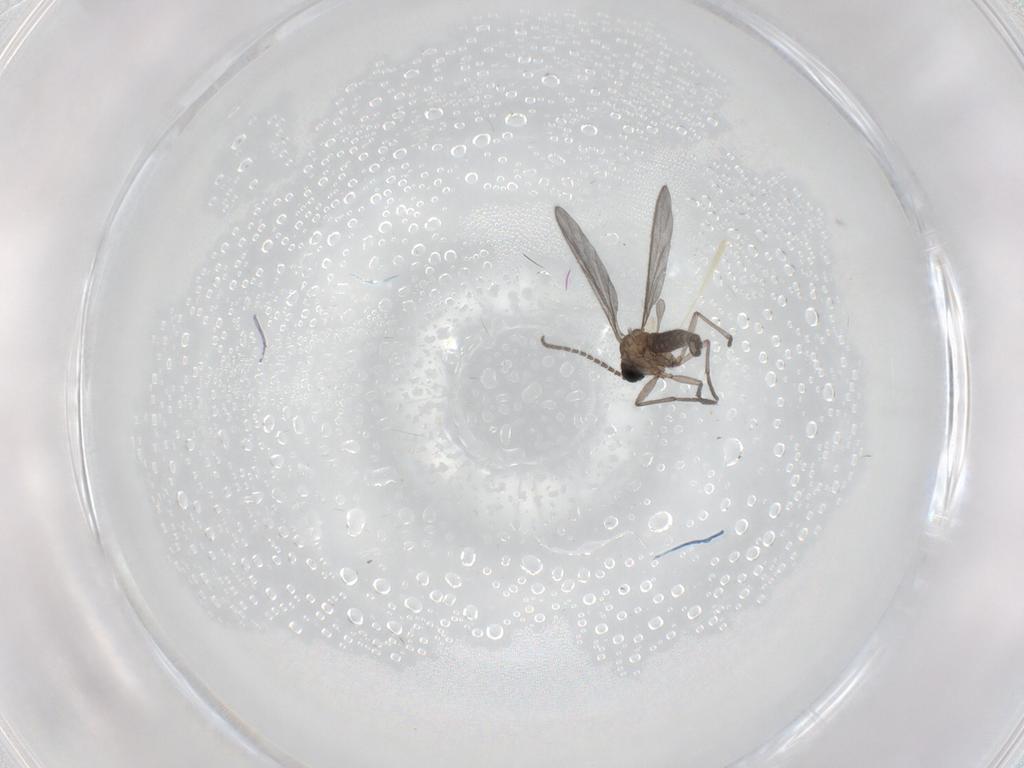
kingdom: Animalia
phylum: Arthropoda
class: Insecta
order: Diptera
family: Sciaridae
